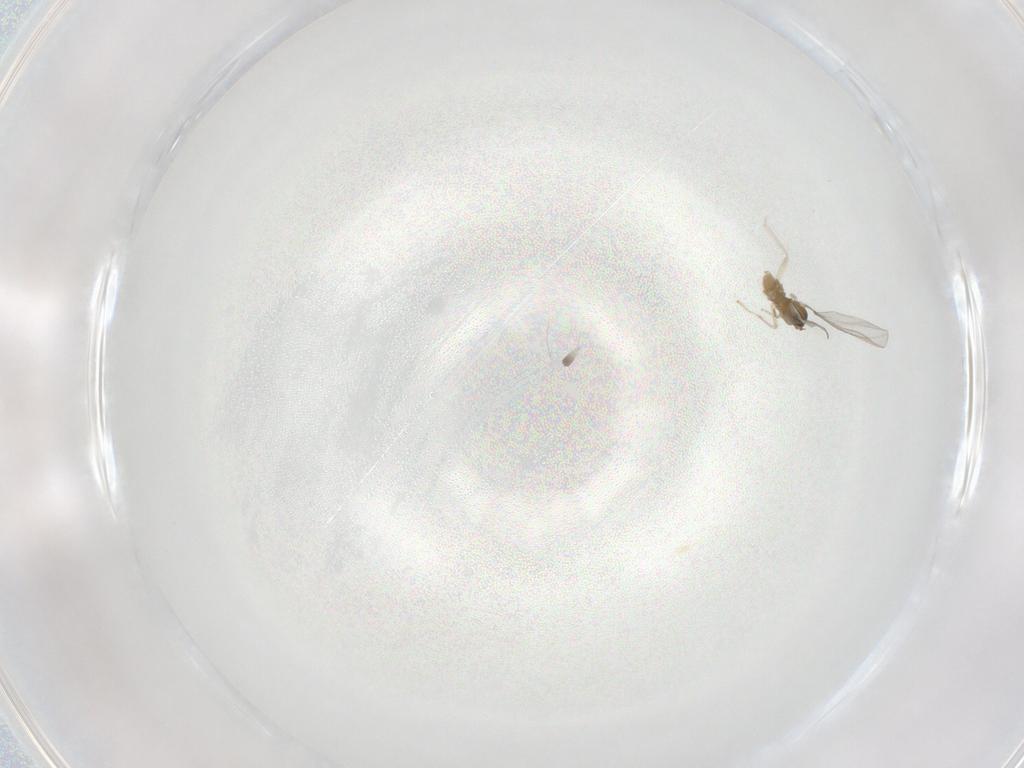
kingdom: Animalia
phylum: Arthropoda
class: Insecta
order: Diptera
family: Cecidomyiidae
